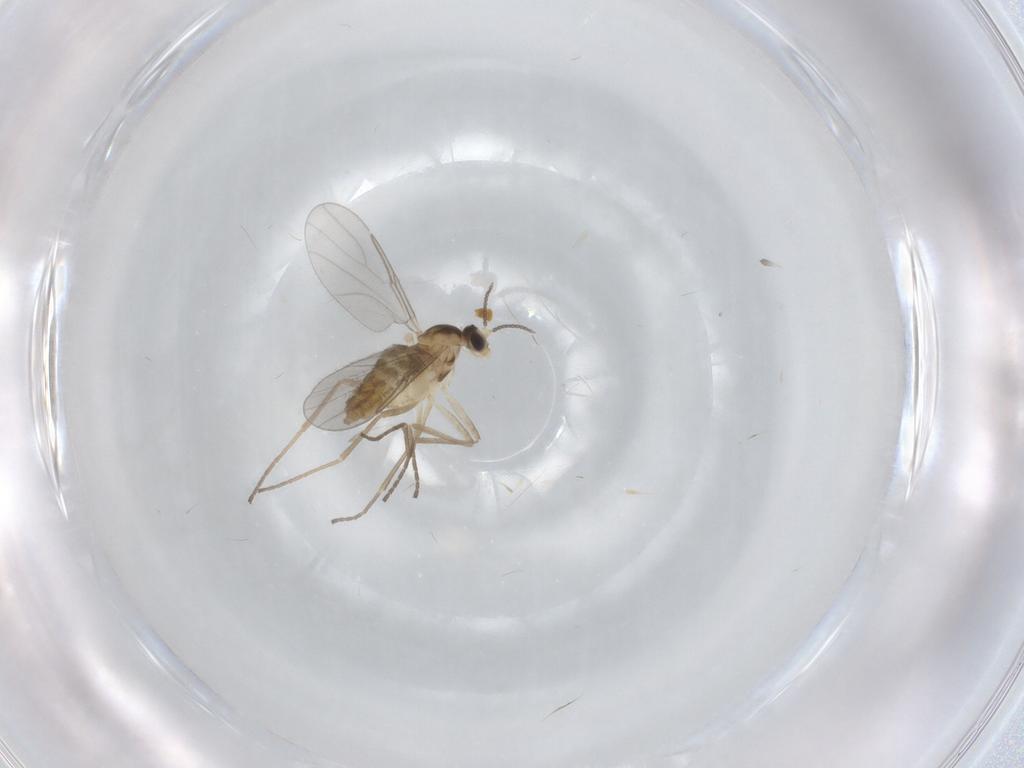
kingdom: Animalia
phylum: Arthropoda
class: Insecta
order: Diptera
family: Cecidomyiidae
